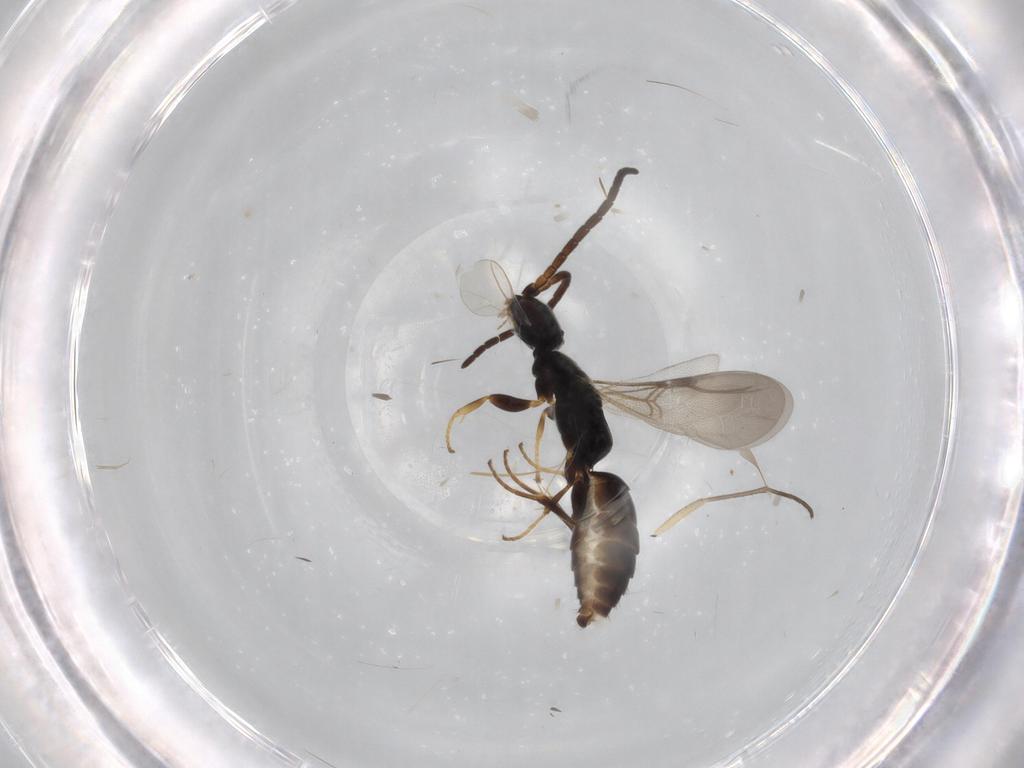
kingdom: Animalia
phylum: Arthropoda
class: Insecta
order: Hymenoptera
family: Bethylidae
